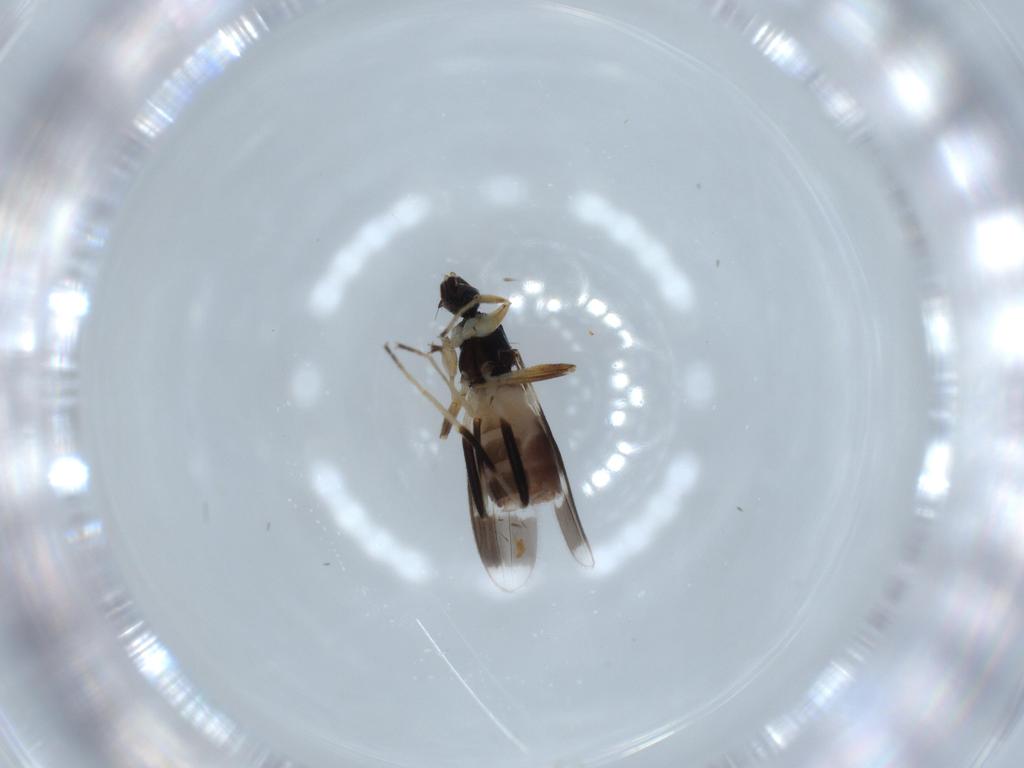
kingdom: Animalia
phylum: Arthropoda
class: Insecta
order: Diptera
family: Hybotidae
